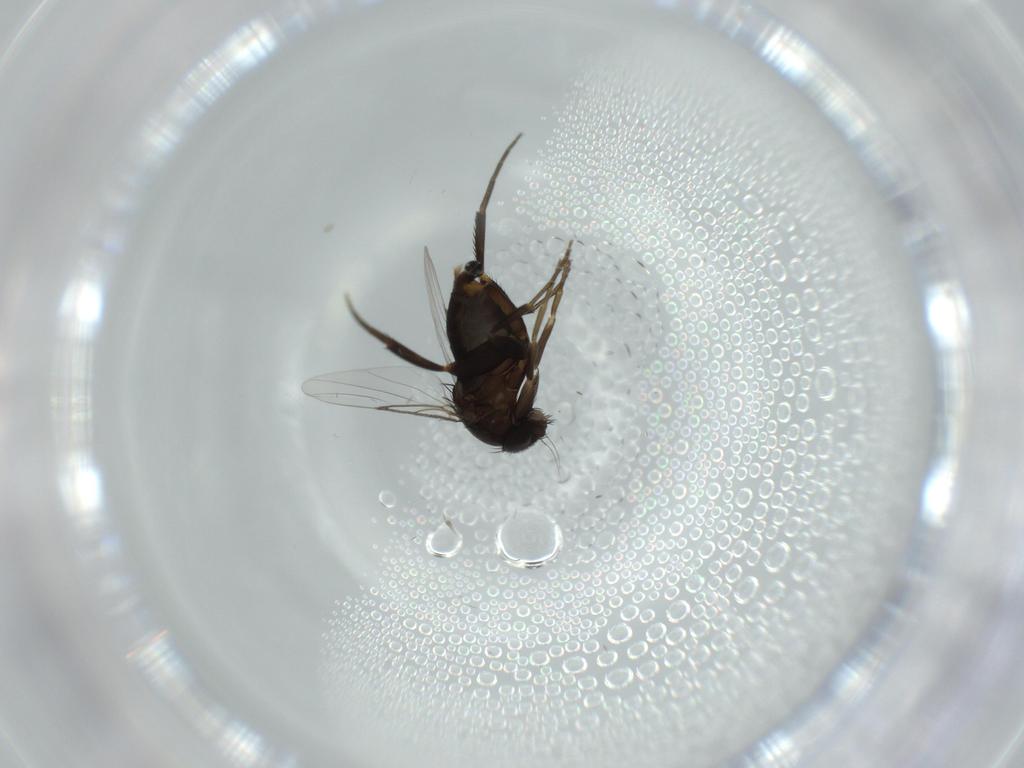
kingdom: Animalia
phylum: Arthropoda
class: Insecta
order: Diptera
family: Phoridae
